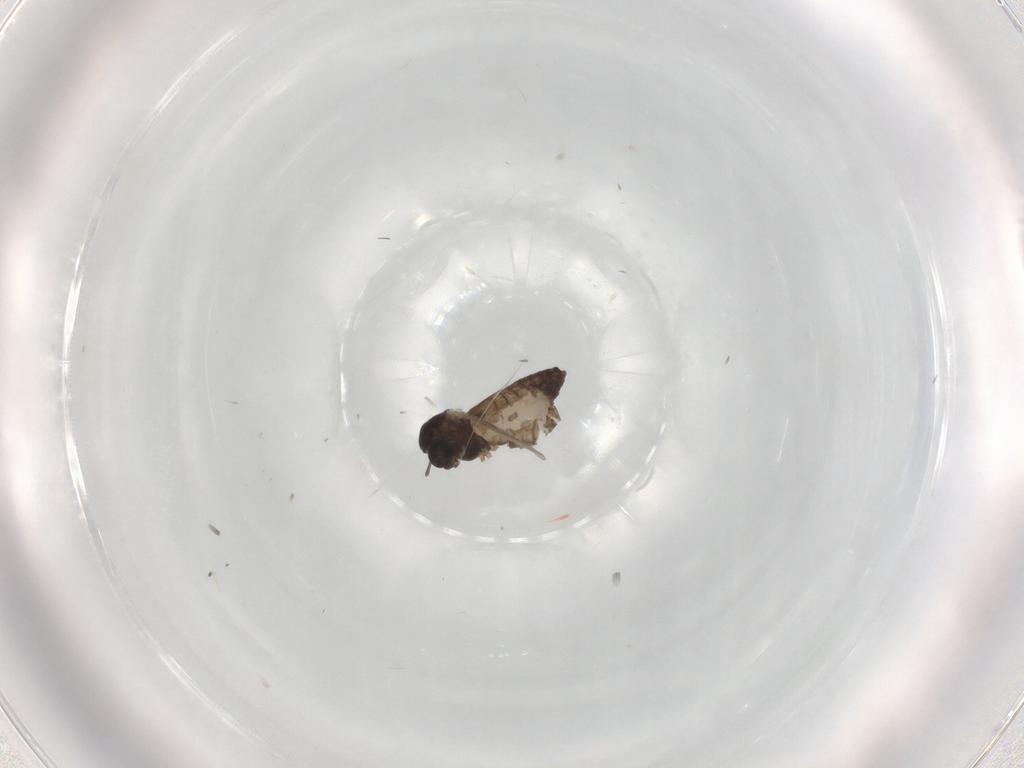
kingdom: Animalia
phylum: Arthropoda
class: Insecta
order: Diptera
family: Chironomidae
